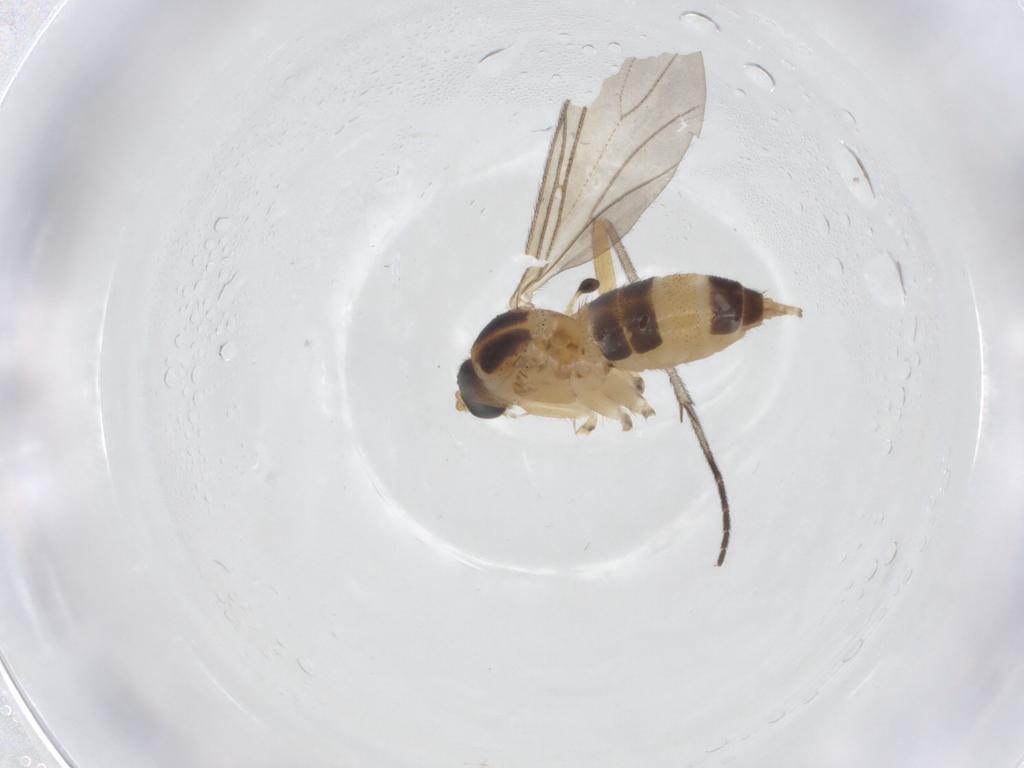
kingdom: Animalia
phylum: Arthropoda
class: Insecta
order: Diptera
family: Sciaridae
